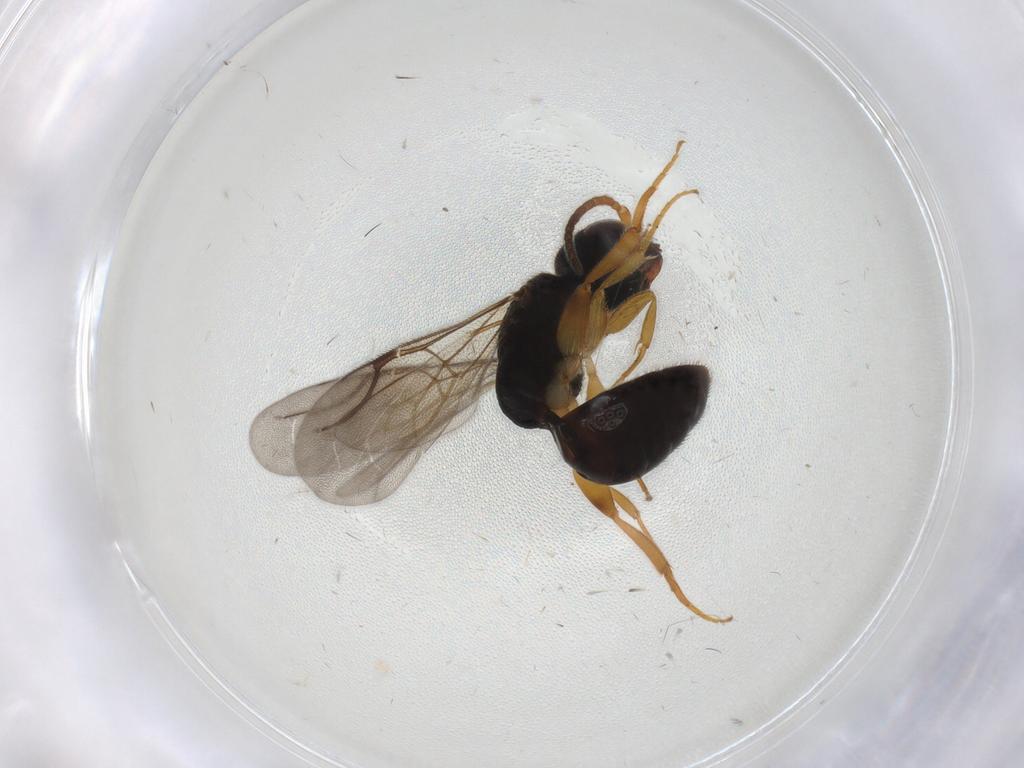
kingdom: Animalia
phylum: Arthropoda
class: Insecta
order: Hymenoptera
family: Bethylidae
